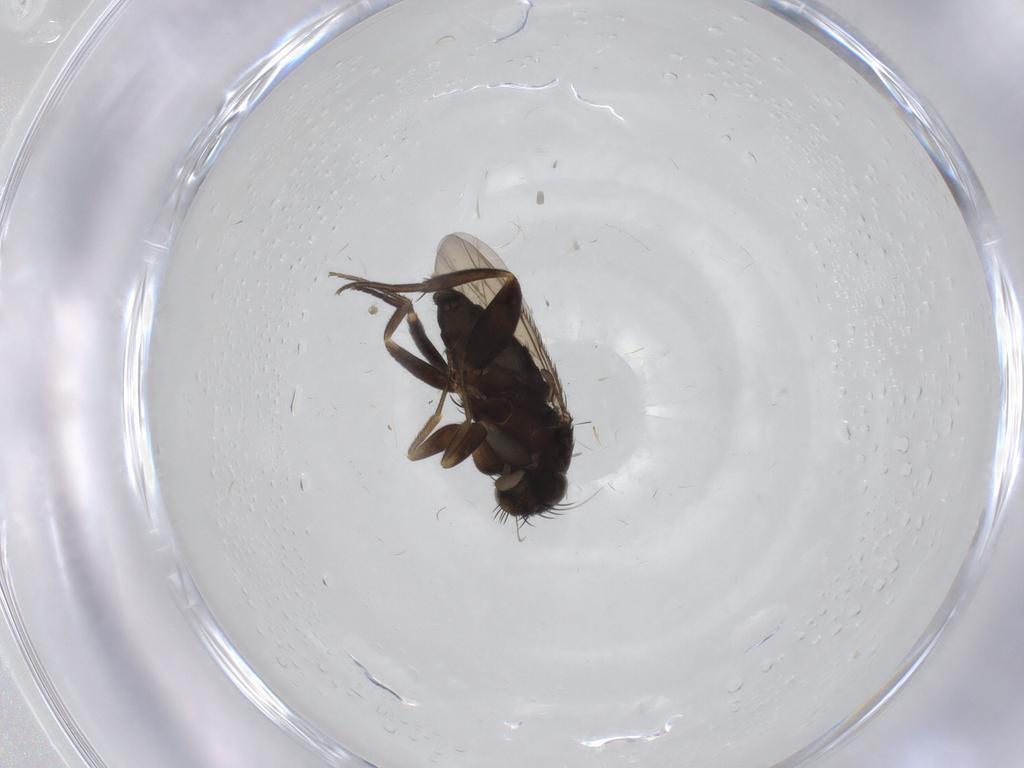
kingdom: Animalia
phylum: Arthropoda
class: Insecta
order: Diptera
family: Phoridae
